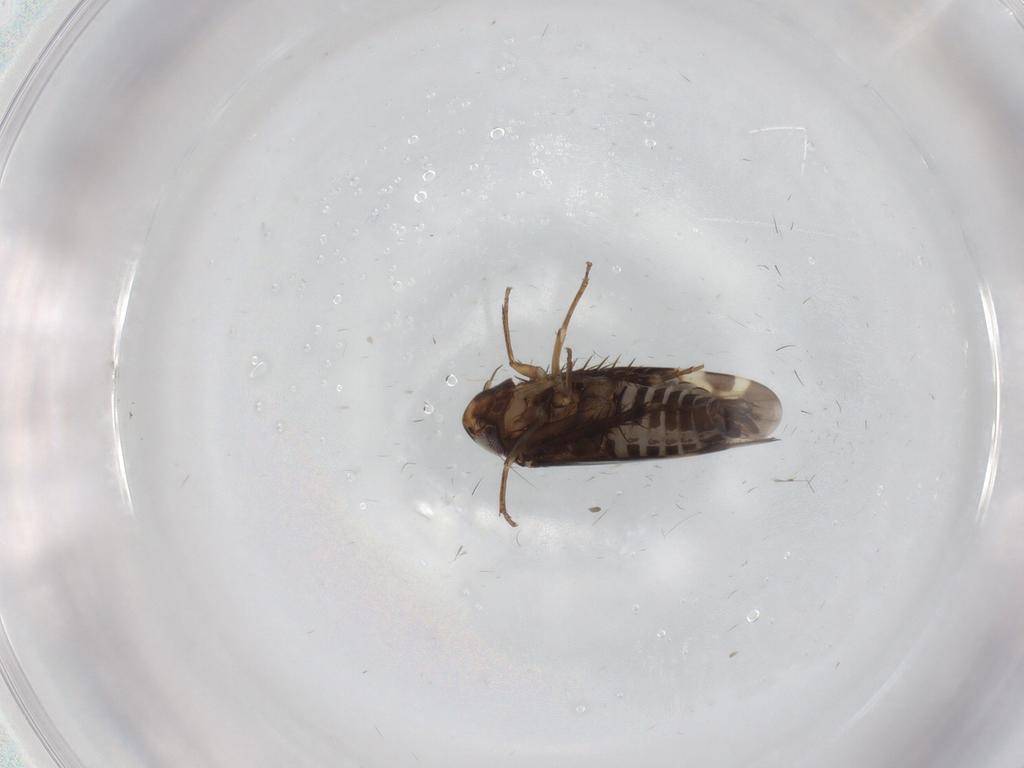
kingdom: Animalia
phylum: Arthropoda
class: Insecta
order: Hemiptera
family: Cicadellidae
